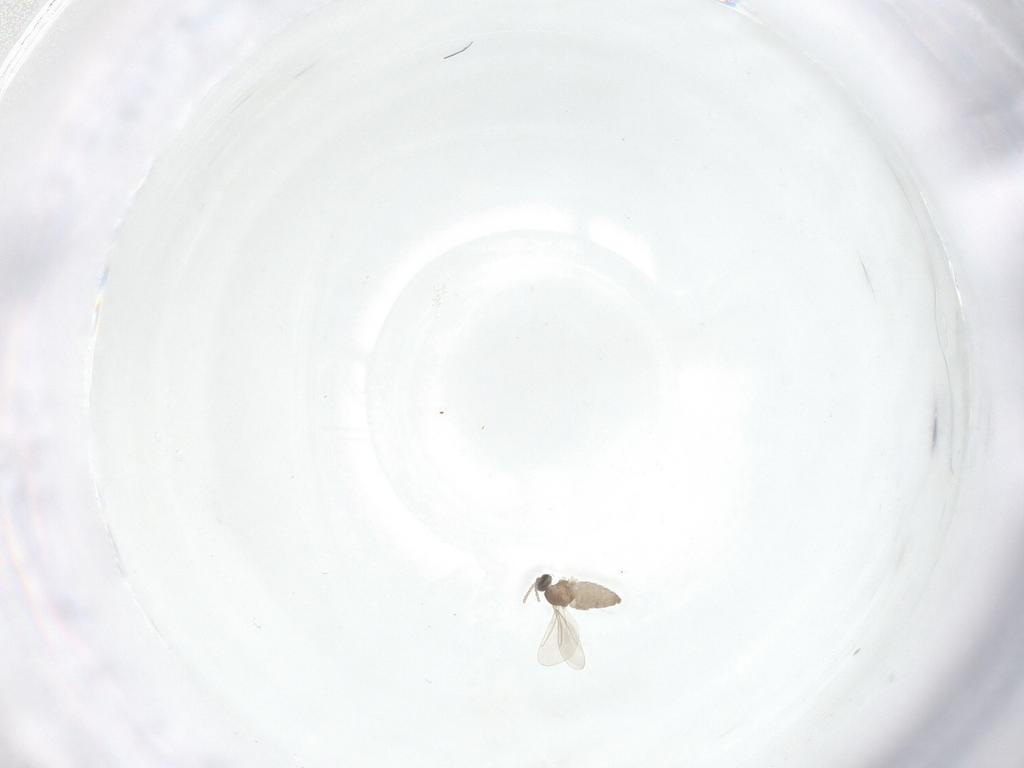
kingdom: Animalia
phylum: Arthropoda
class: Insecta
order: Diptera
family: Cecidomyiidae
